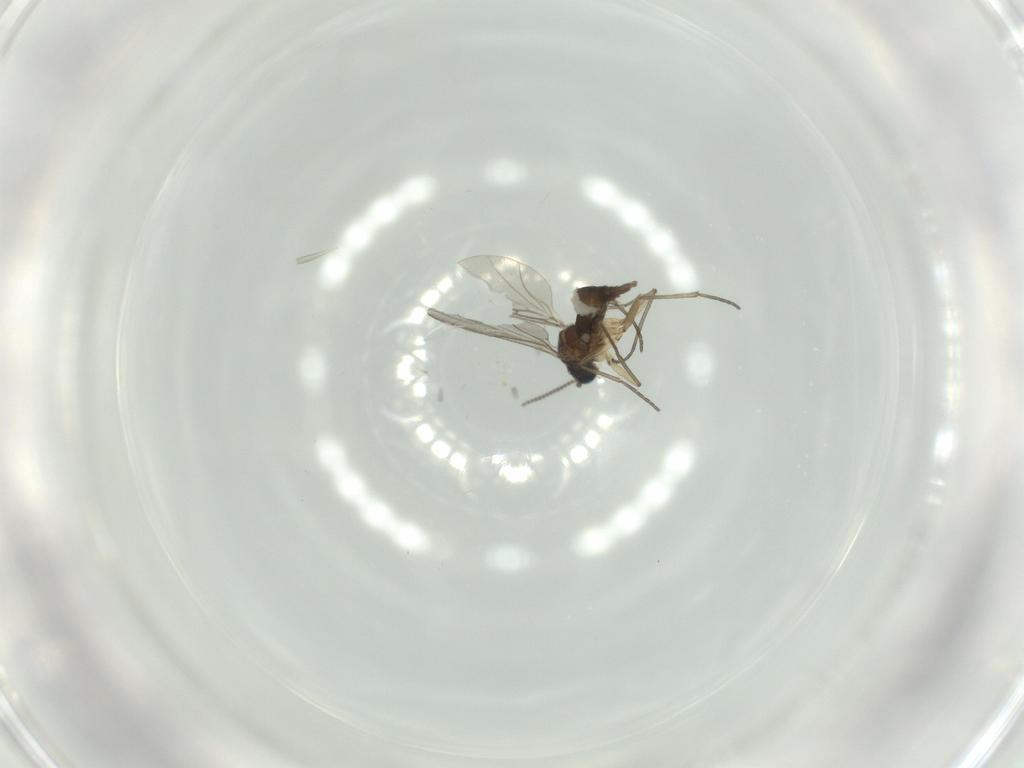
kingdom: Animalia
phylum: Arthropoda
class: Insecta
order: Diptera
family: Sciaridae
